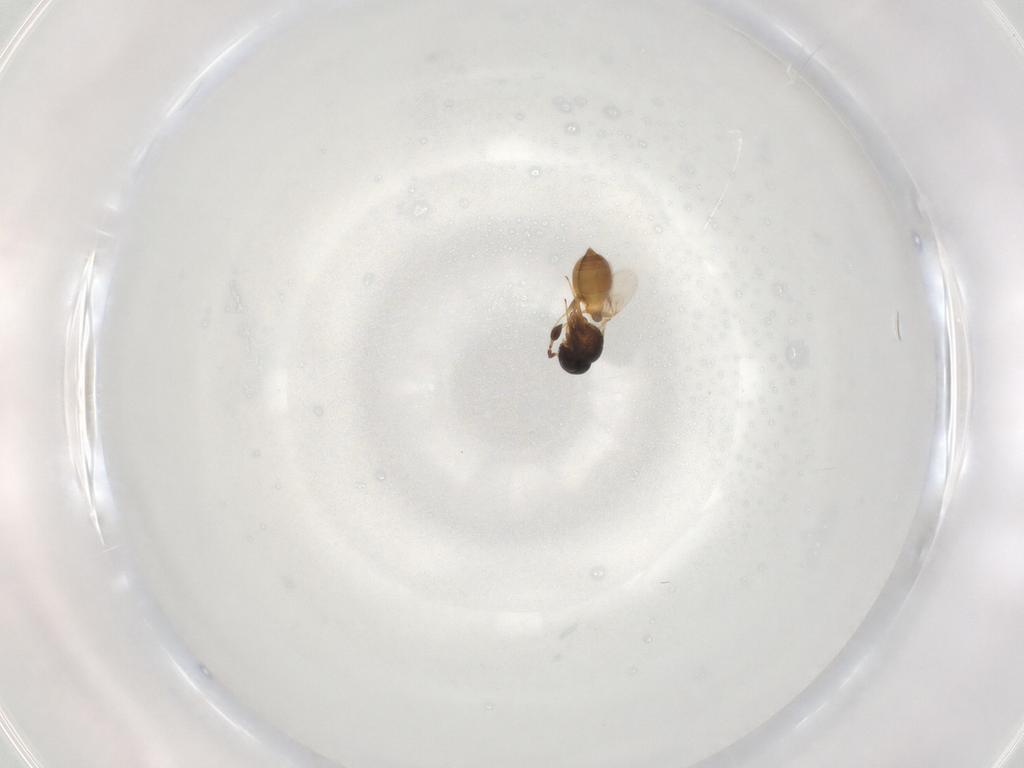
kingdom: Animalia
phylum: Arthropoda
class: Insecta
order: Hymenoptera
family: Scelionidae
